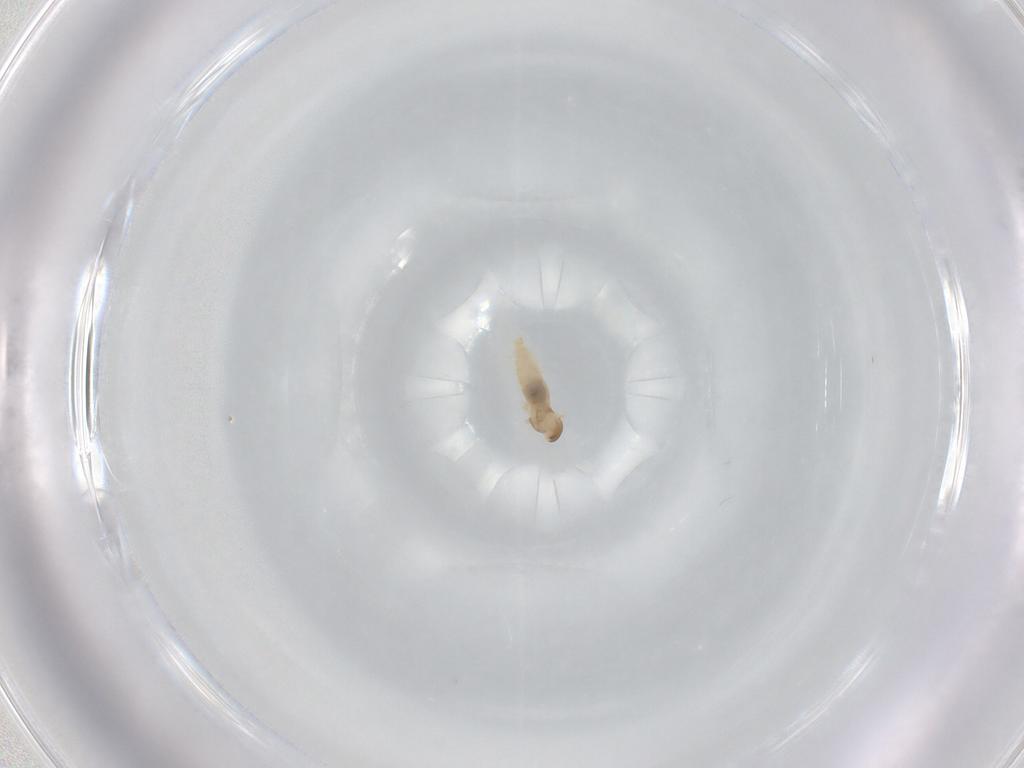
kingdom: Animalia
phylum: Arthropoda
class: Insecta
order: Diptera
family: Cecidomyiidae
